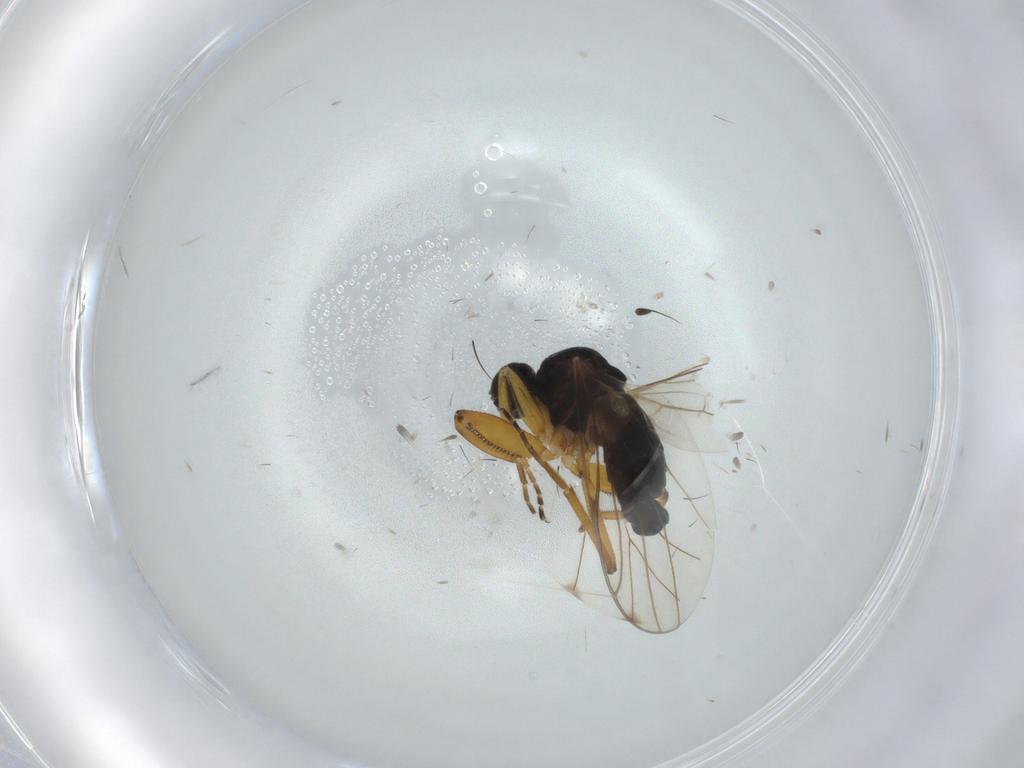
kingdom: Animalia
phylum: Arthropoda
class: Insecta
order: Diptera
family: Hybotidae
